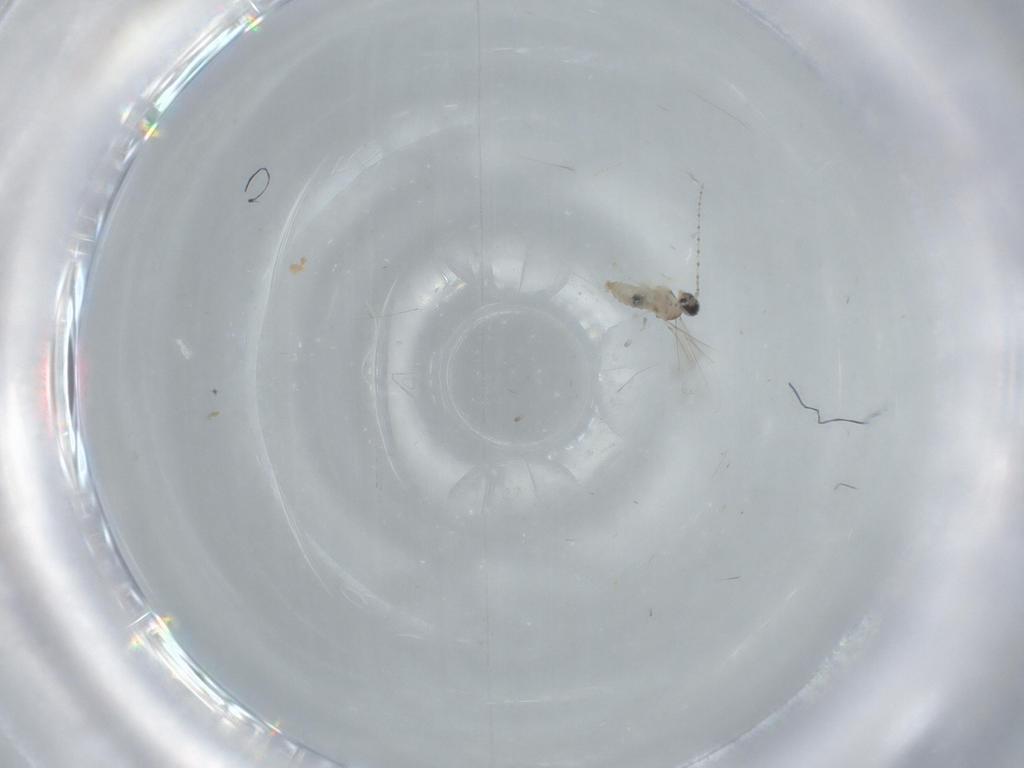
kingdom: Animalia
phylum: Arthropoda
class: Insecta
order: Diptera
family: Cecidomyiidae
